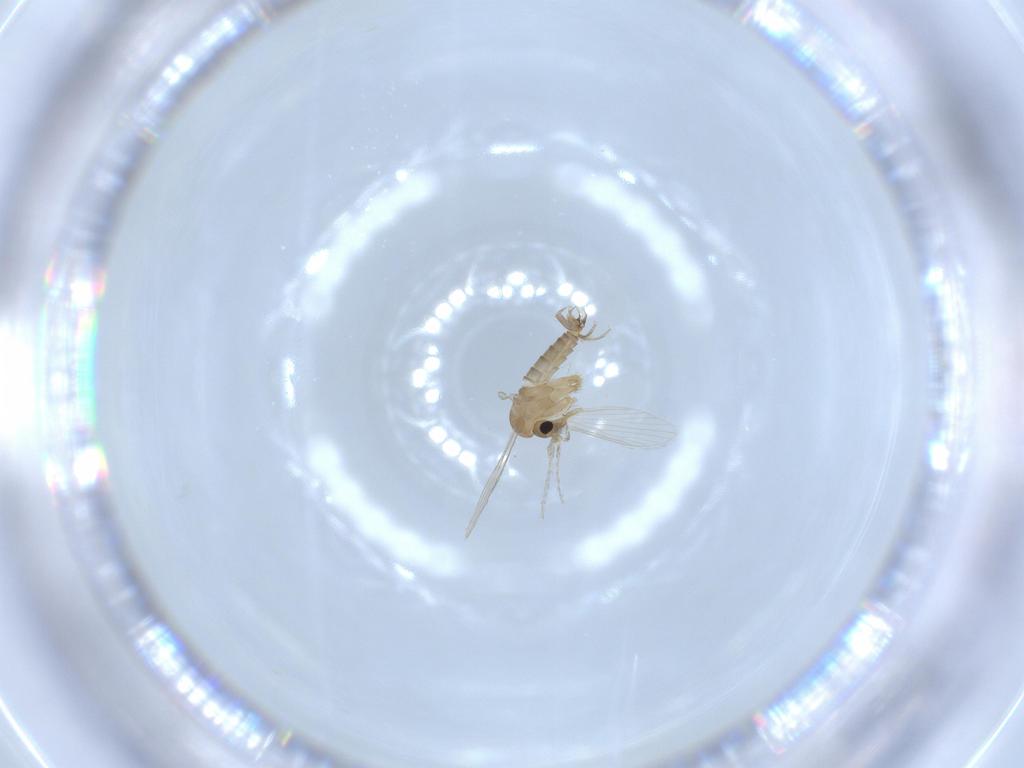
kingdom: Animalia
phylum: Arthropoda
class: Insecta
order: Diptera
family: Psychodidae
